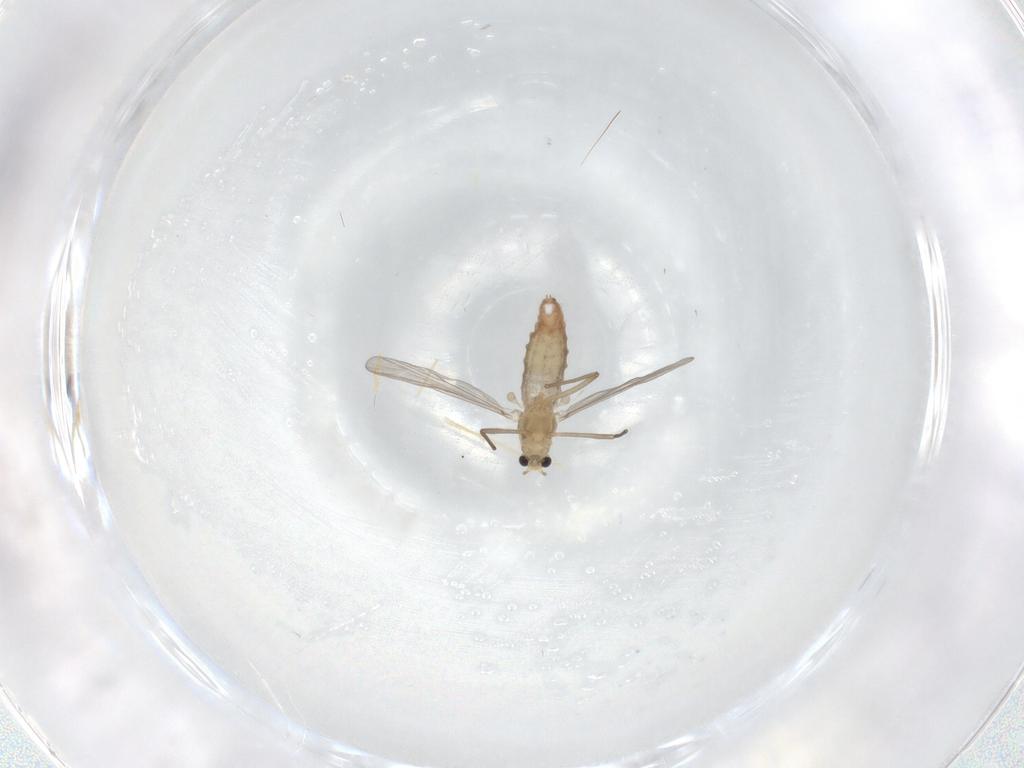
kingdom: Animalia
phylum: Arthropoda
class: Insecta
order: Diptera
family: Chironomidae
